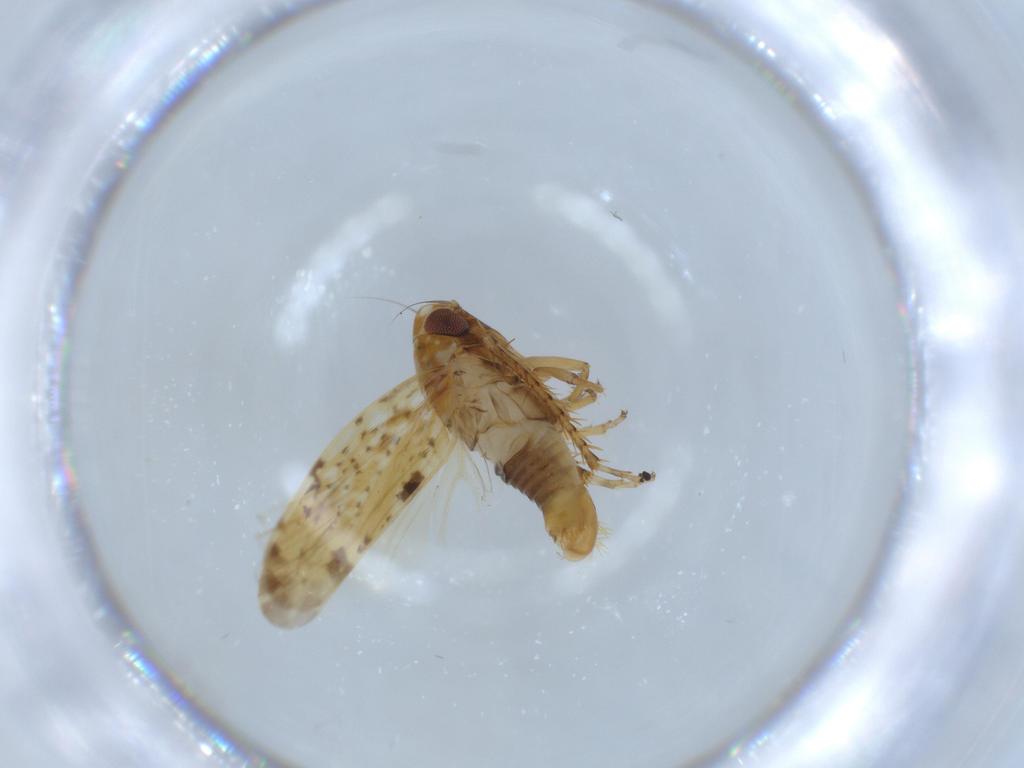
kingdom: Animalia
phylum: Arthropoda
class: Insecta
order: Hemiptera
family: Cicadellidae
